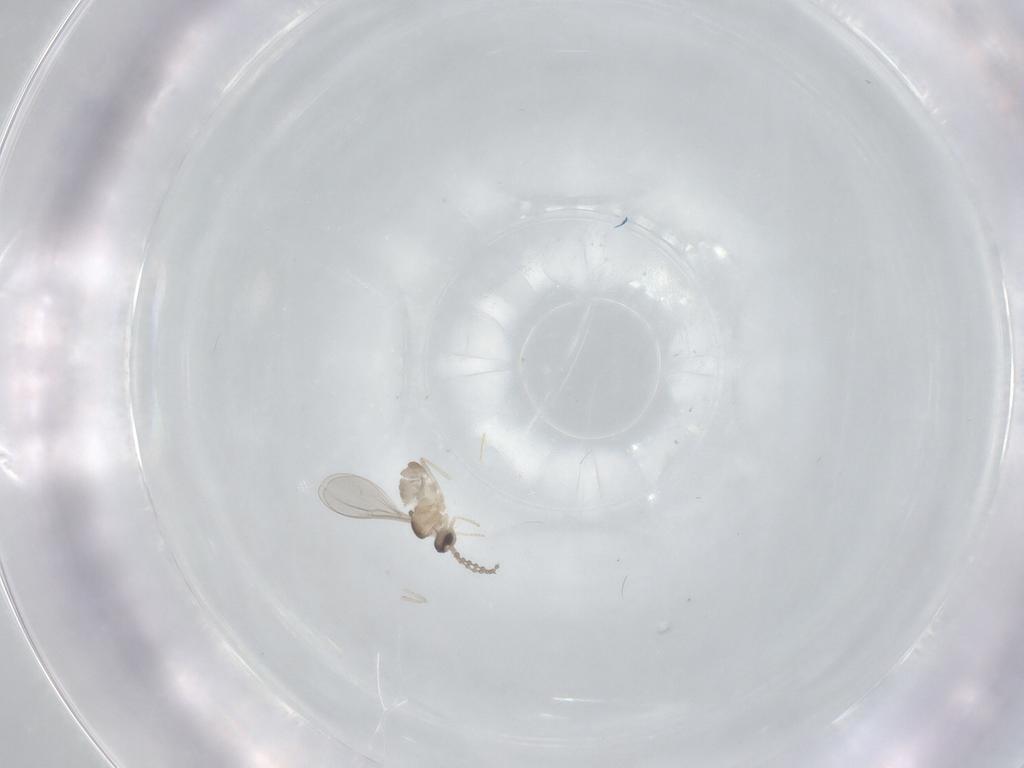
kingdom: Animalia
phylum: Arthropoda
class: Insecta
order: Diptera
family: Cecidomyiidae
